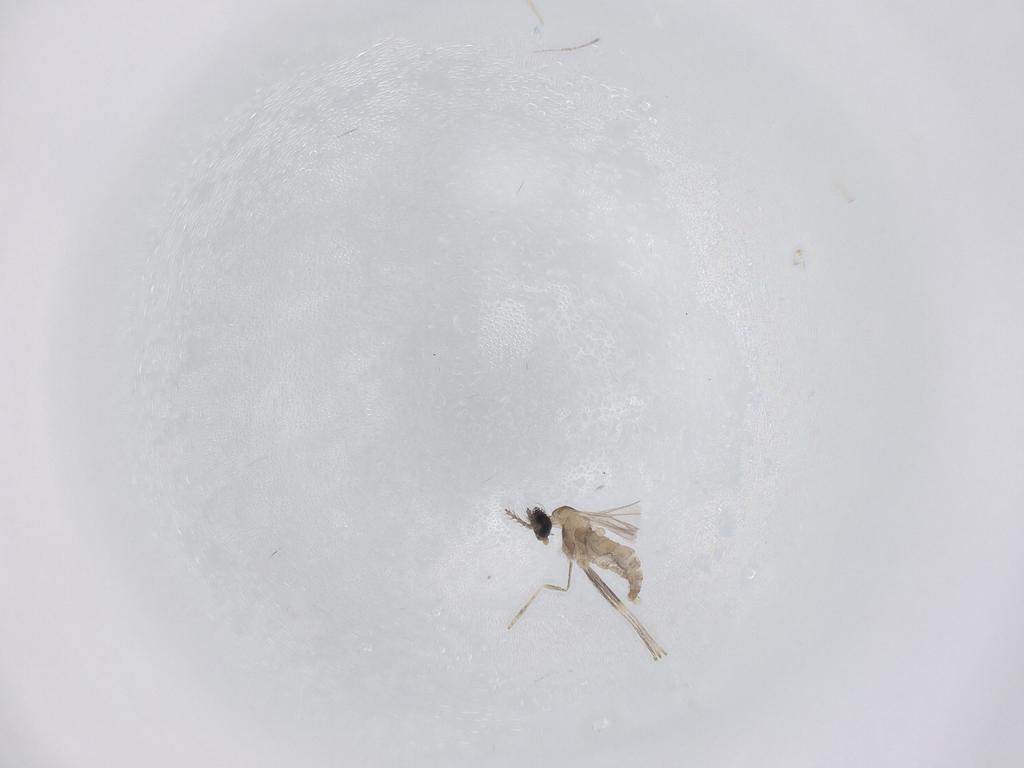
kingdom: Animalia
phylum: Arthropoda
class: Insecta
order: Diptera
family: Cecidomyiidae
